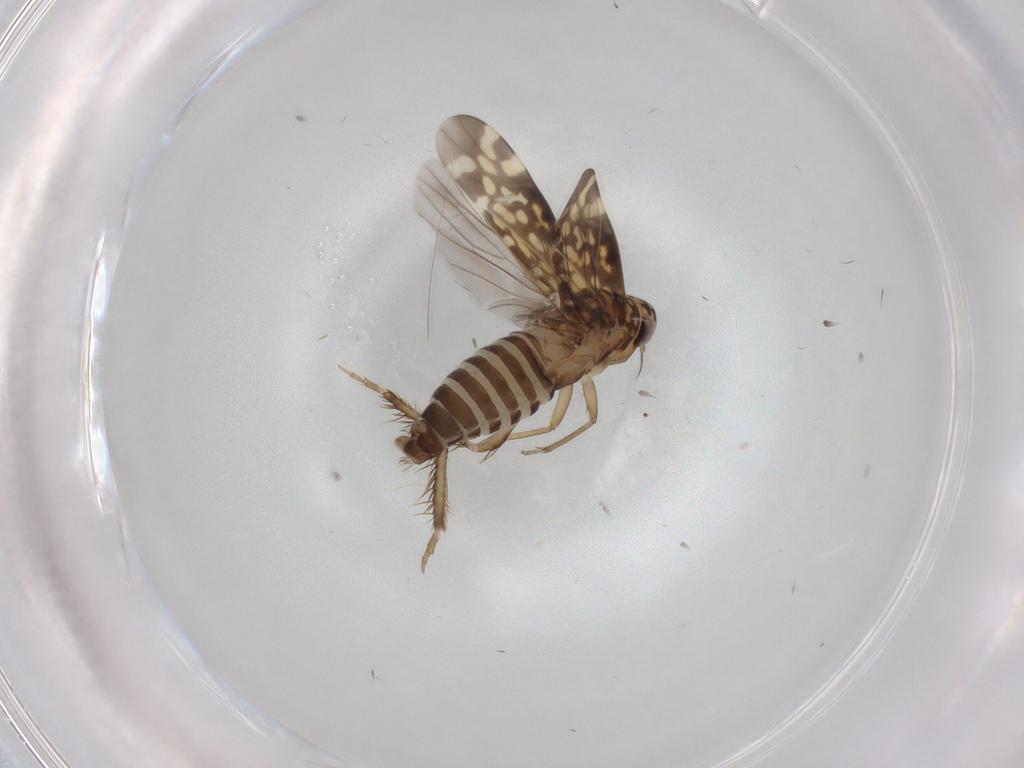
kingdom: Animalia
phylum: Arthropoda
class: Insecta
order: Hemiptera
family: Cicadellidae
